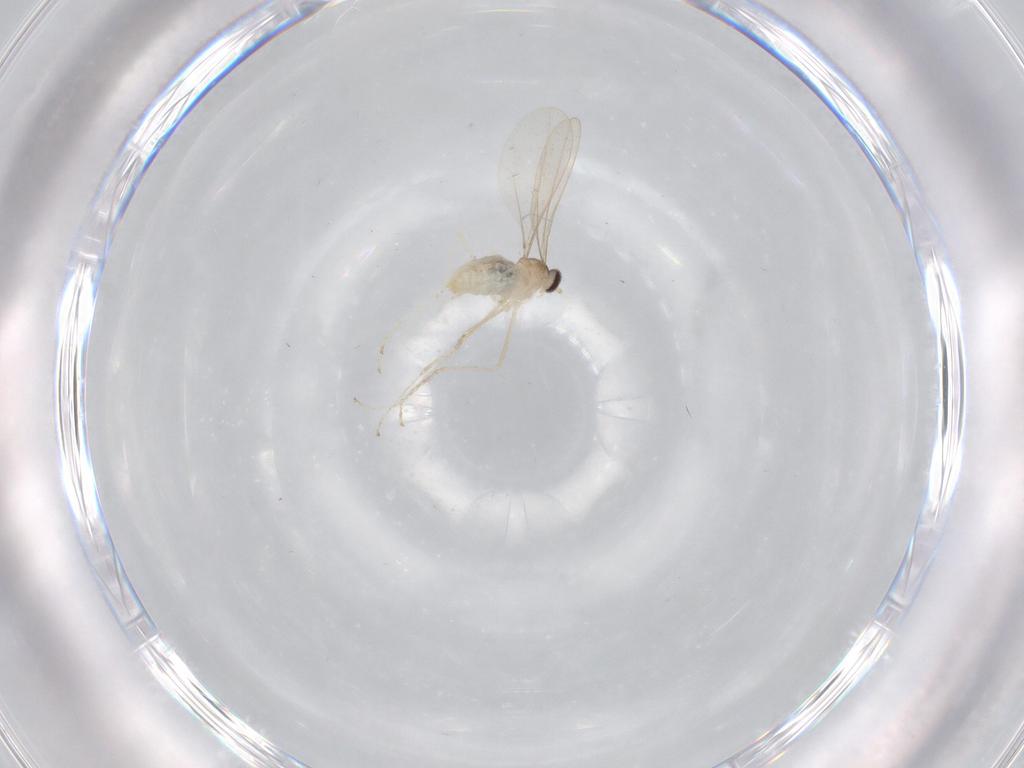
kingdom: Animalia
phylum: Arthropoda
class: Insecta
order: Diptera
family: Cecidomyiidae
